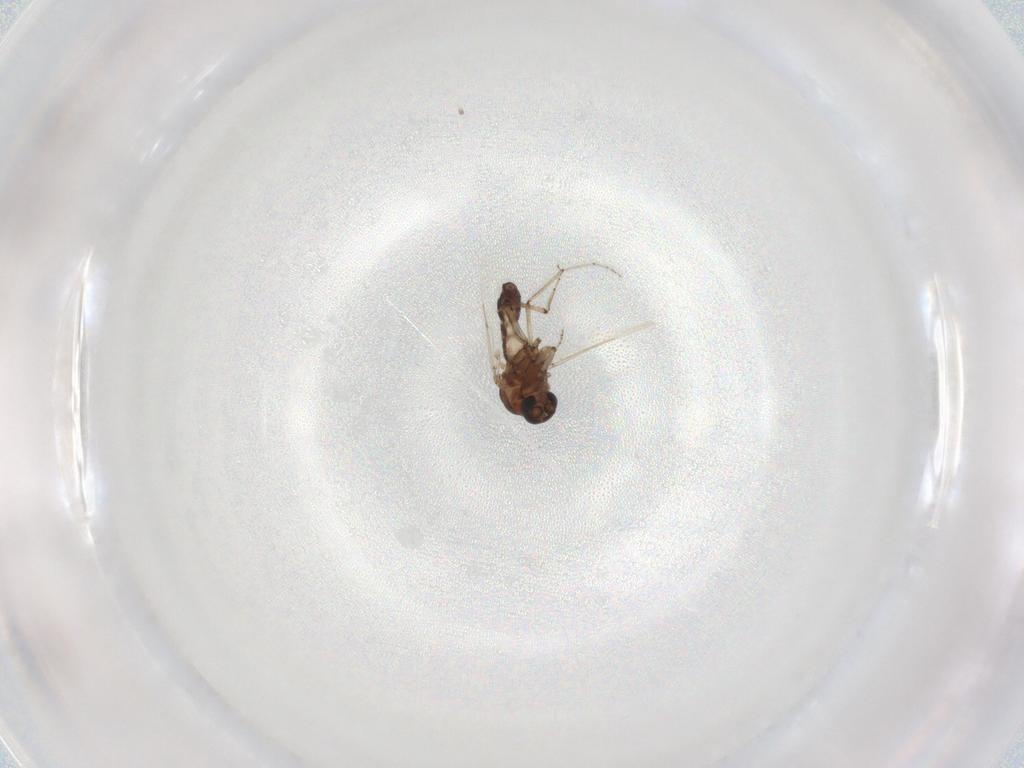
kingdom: Animalia
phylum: Arthropoda
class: Insecta
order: Diptera
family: Ceratopogonidae
